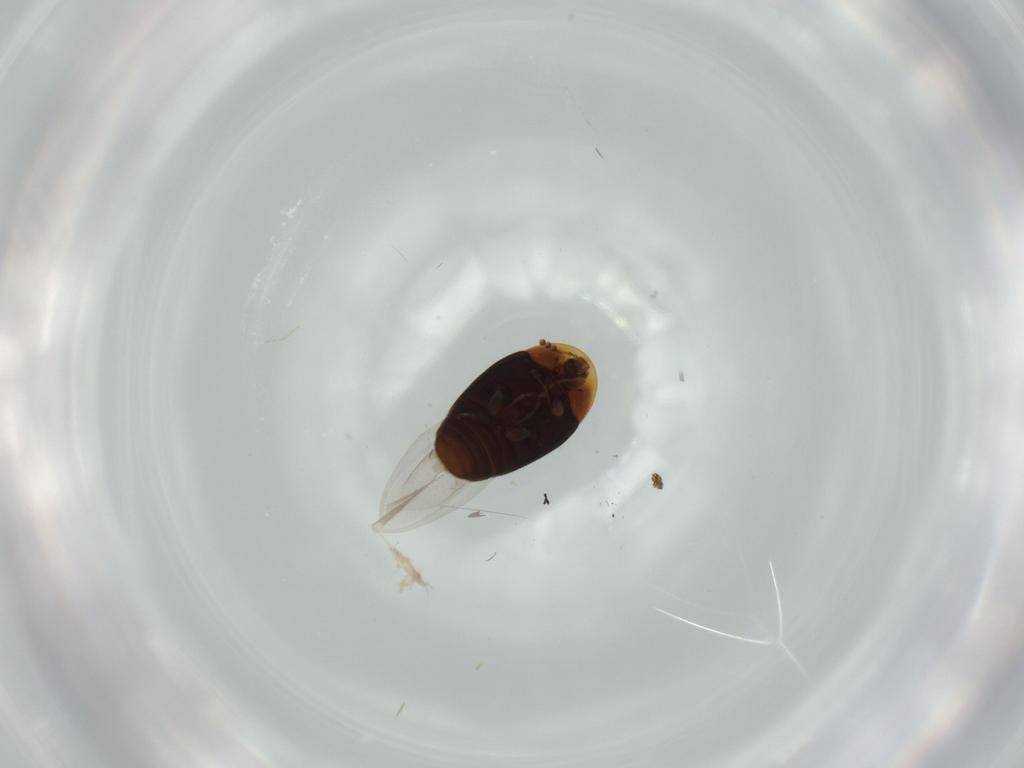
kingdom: Animalia
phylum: Arthropoda
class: Insecta
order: Coleoptera
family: Corylophidae
